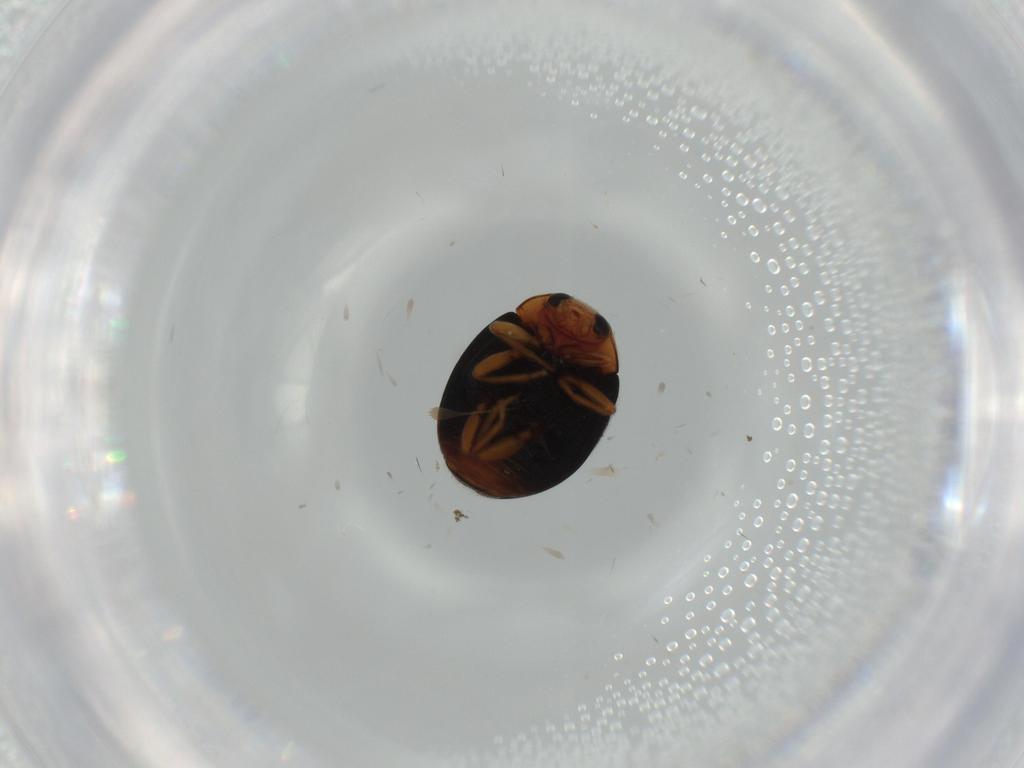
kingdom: Animalia
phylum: Arthropoda
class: Insecta
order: Coleoptera
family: Coccinellidae
